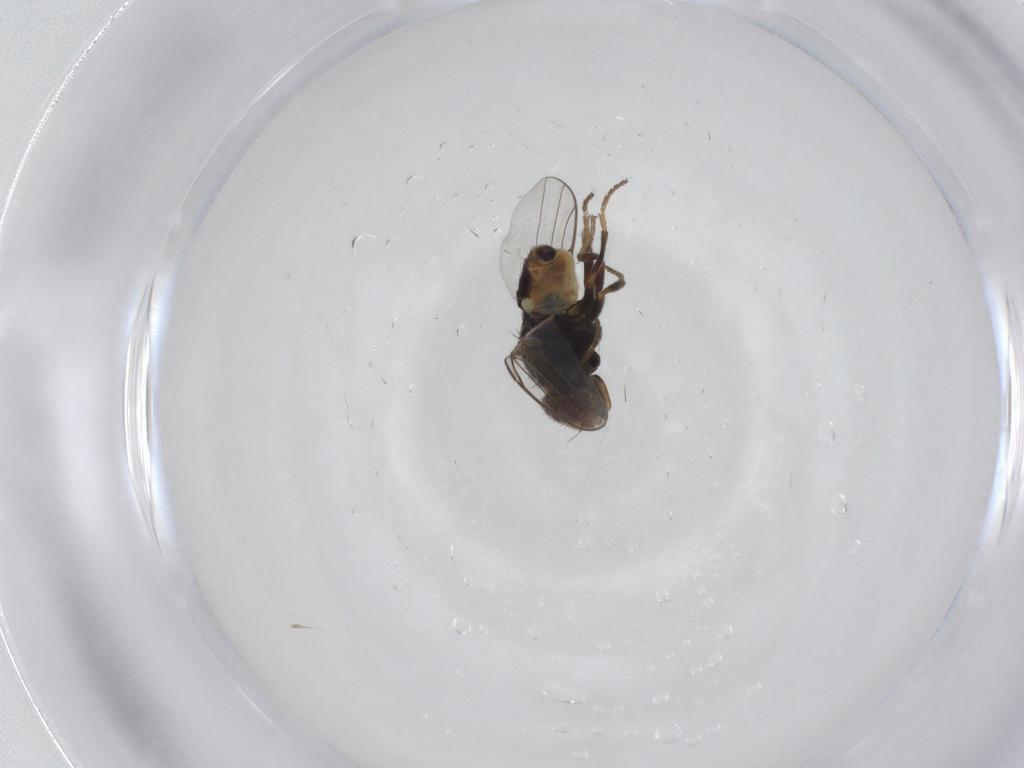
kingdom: Animalia
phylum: Arthropoda
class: Insecta
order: Diptera
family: Chloropidae
